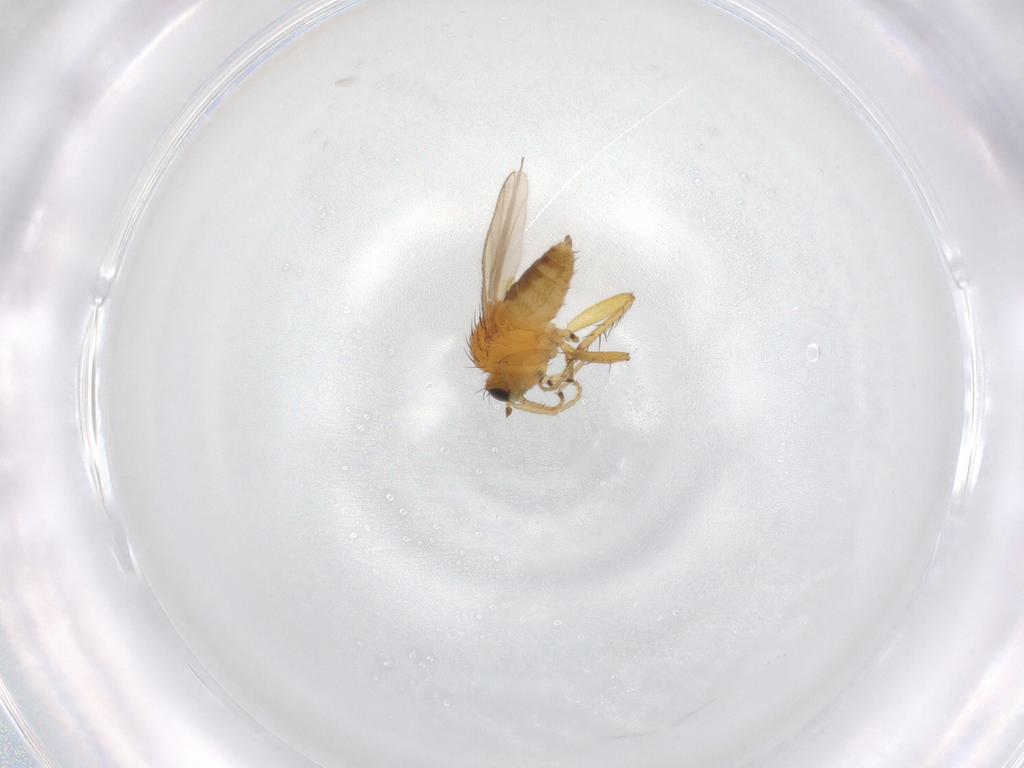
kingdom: Animalia
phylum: Arthropoda
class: Insecta
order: Diptera
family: Hybotidae
